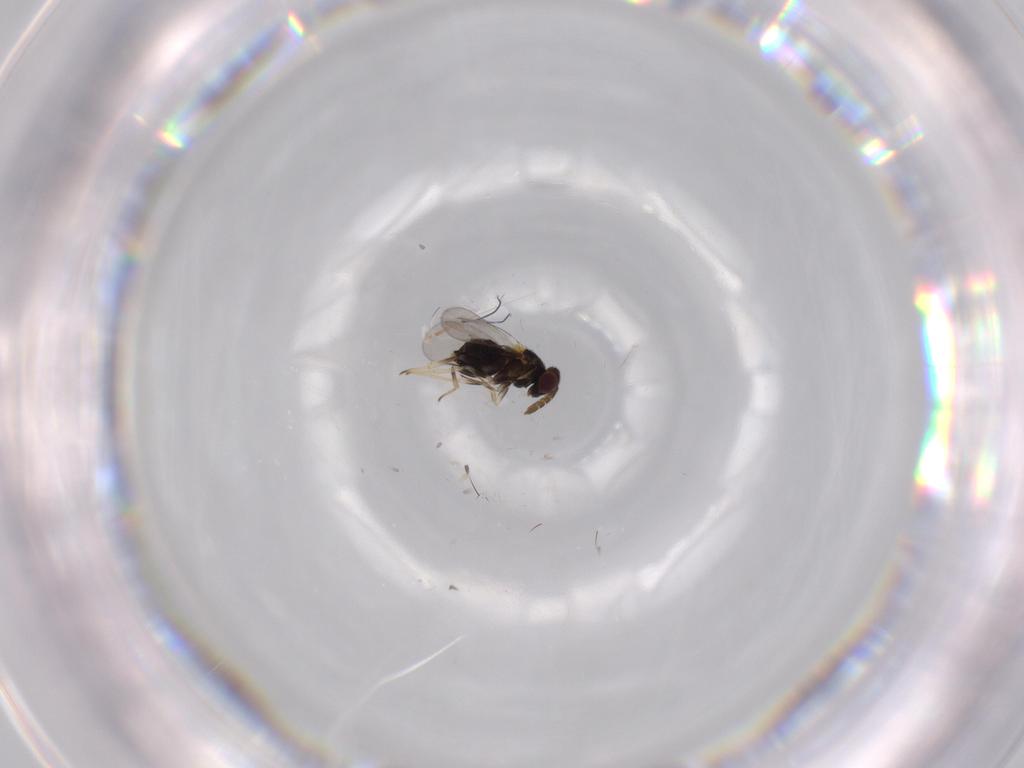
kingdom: Animalia
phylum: Arthropoda
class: Insecta
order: Hymenoptera
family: Aphelinidae
